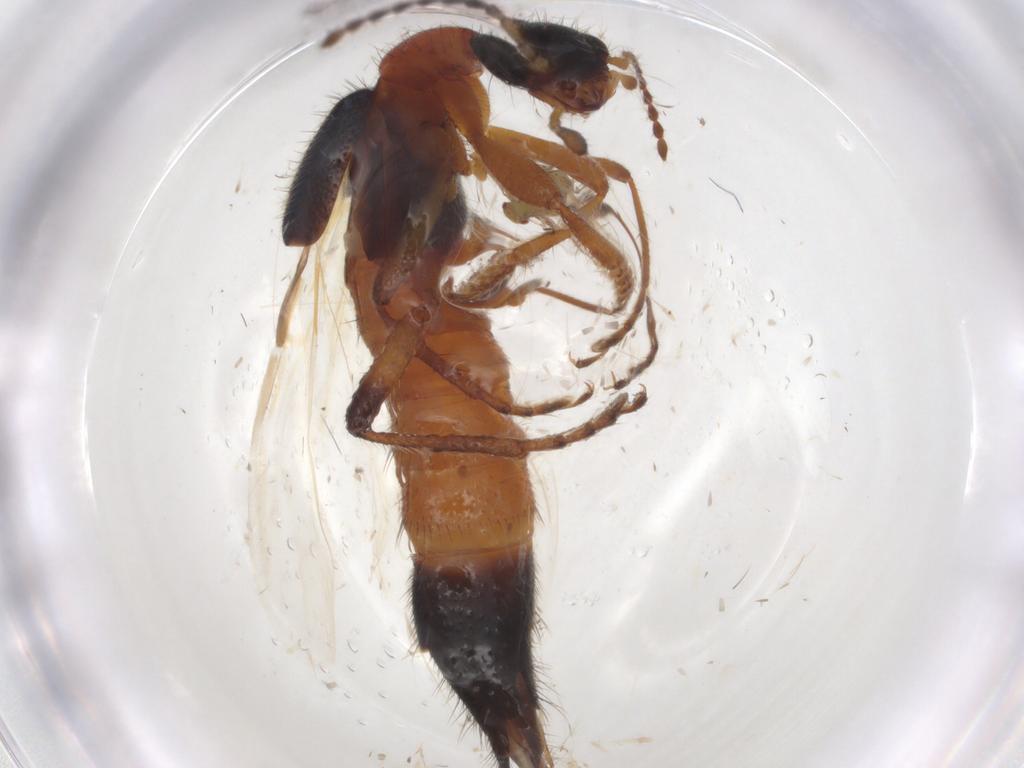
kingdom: Animalia
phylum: Arthropoda
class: Insecta
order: Coleoptera
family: Staphylinidae
